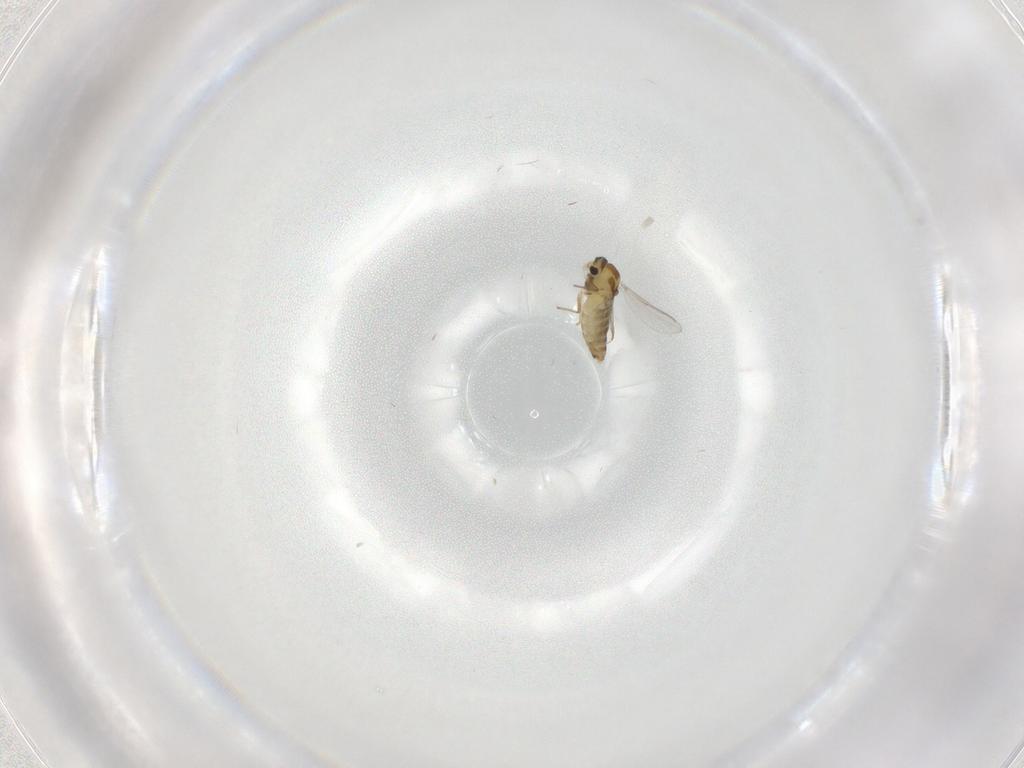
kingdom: Animalia
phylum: Arthropoda
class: Insecta
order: Diptera
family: Chironomidae
